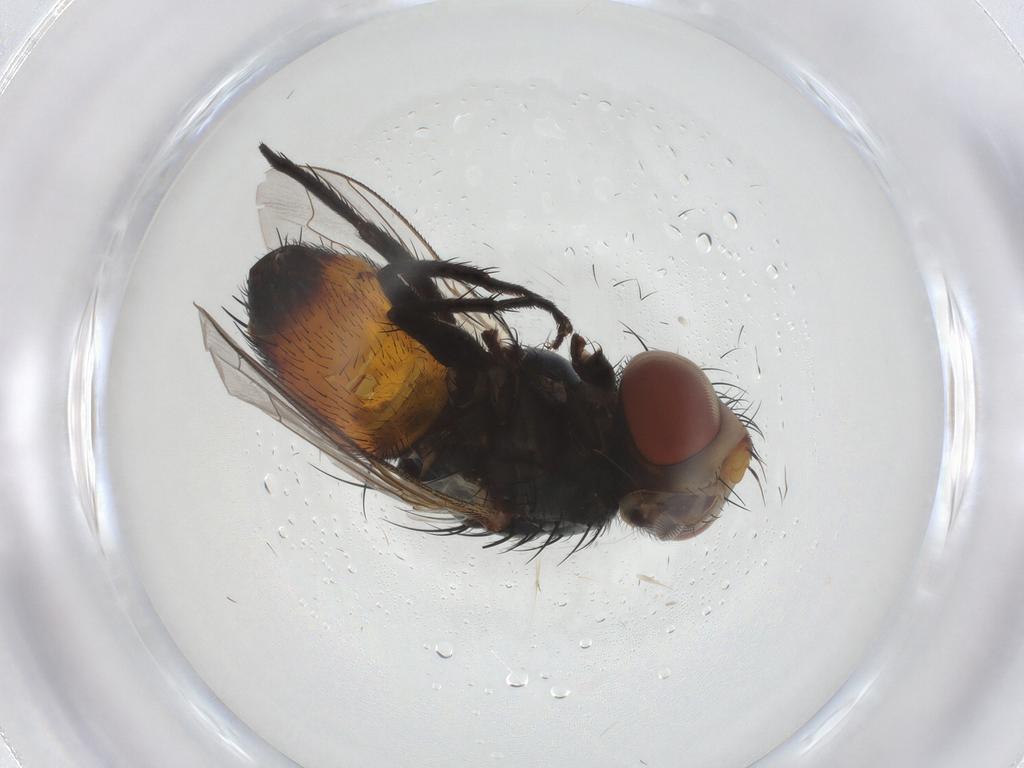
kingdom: Animalia
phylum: Arthropoda
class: Insecta
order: Diptera
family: Sarcophagidae
